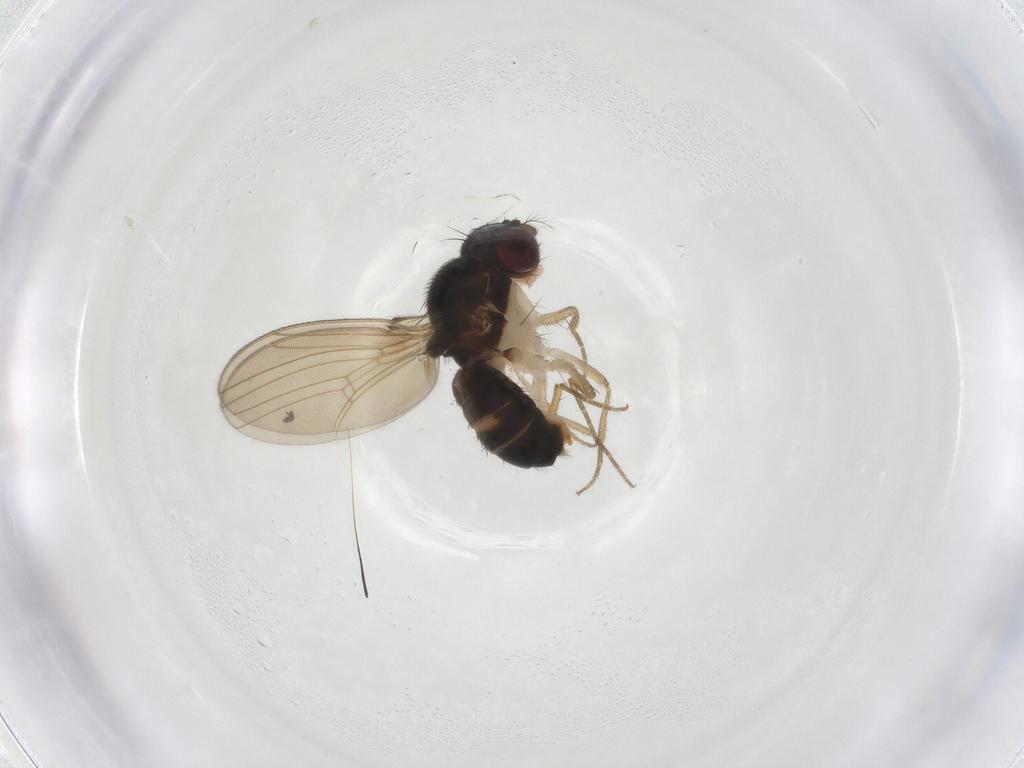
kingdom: Animalia
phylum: Arthropoda
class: Insecta
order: Diptera
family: Drosophilidae
